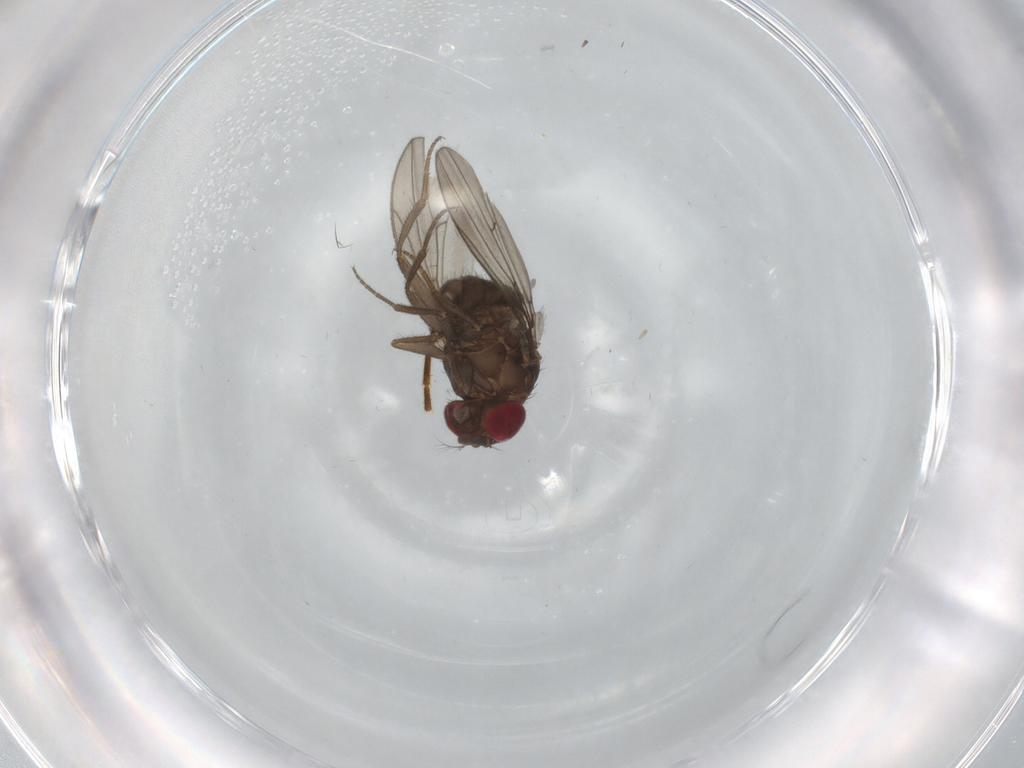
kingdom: Animalia
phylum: Arthropoda
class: Insecta
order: Diptera
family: Drosophilidae
